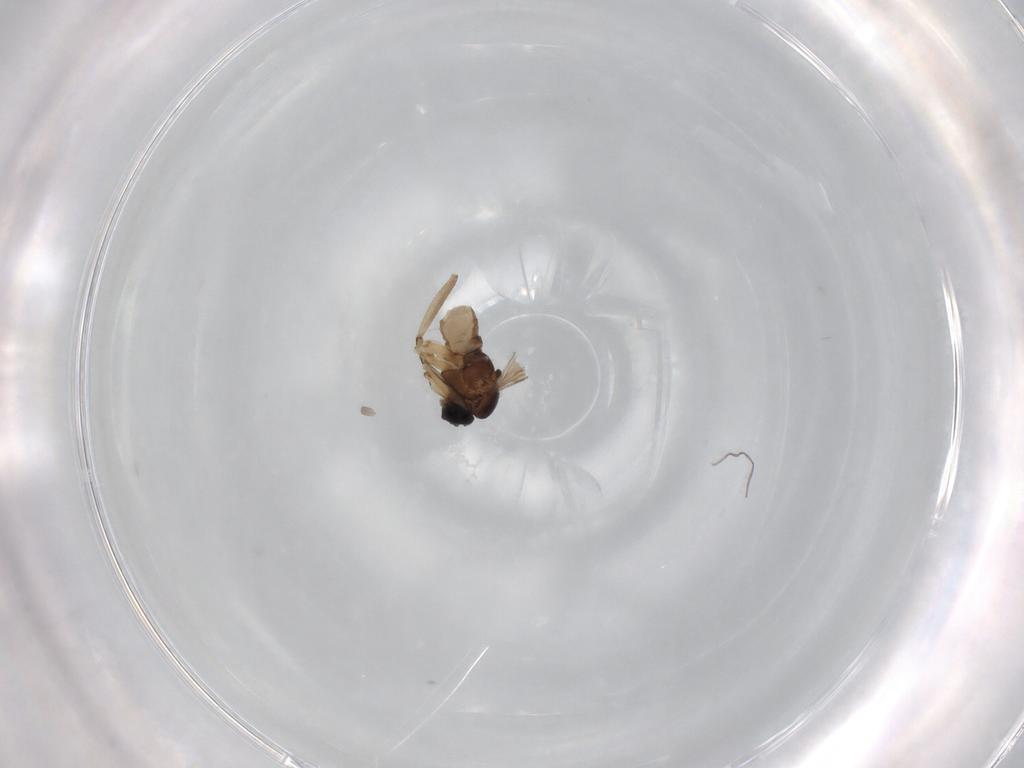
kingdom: Animalia
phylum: Arthropoda
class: Insecta
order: Diptera
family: Sciaridae
